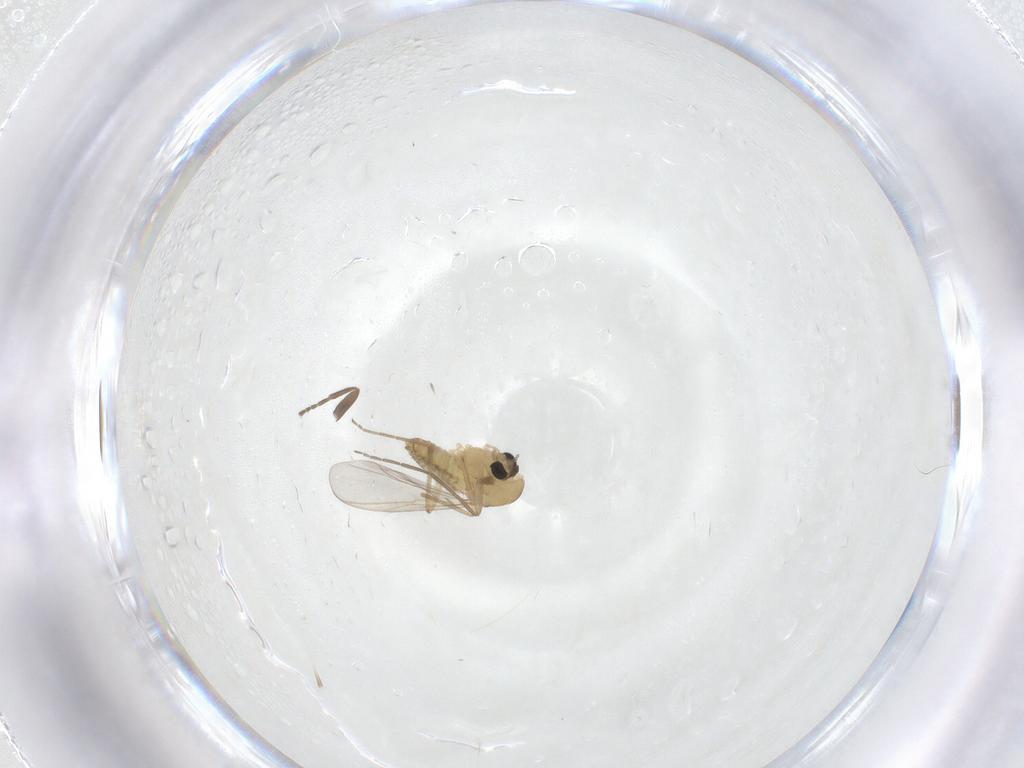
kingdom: Animalia
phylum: Arthropoda
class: Insecta
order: Diptera
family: Chironomidae
